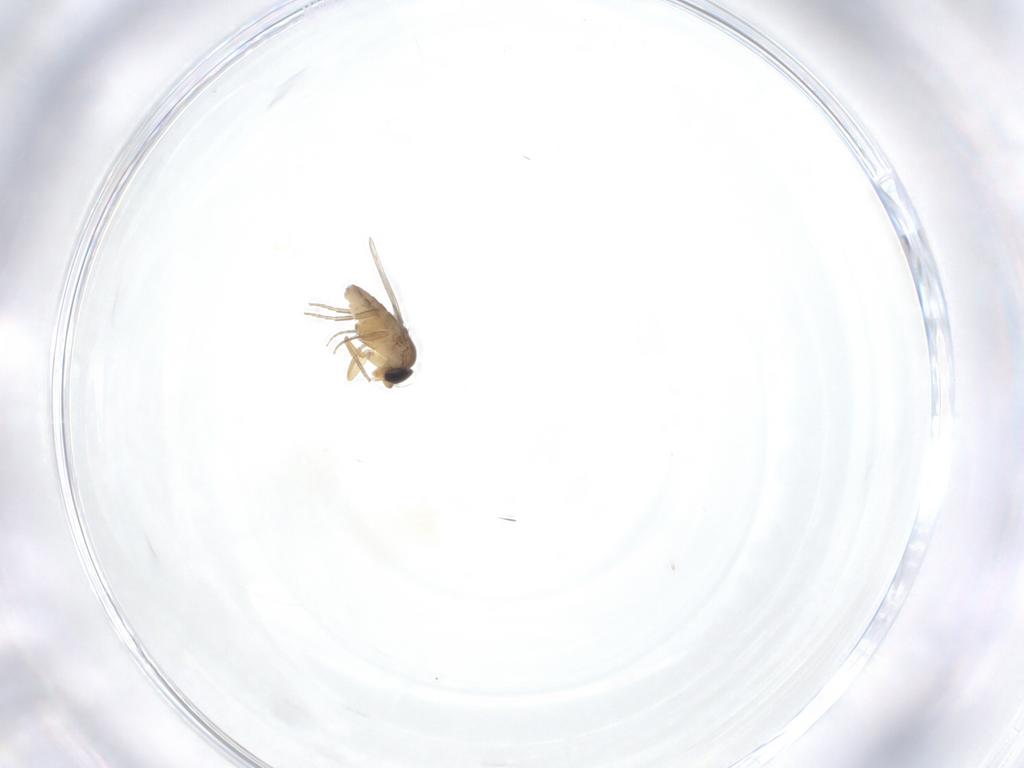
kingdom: Animalia
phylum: Arthropoda
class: Insecta
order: Diptera
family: Phoridae
